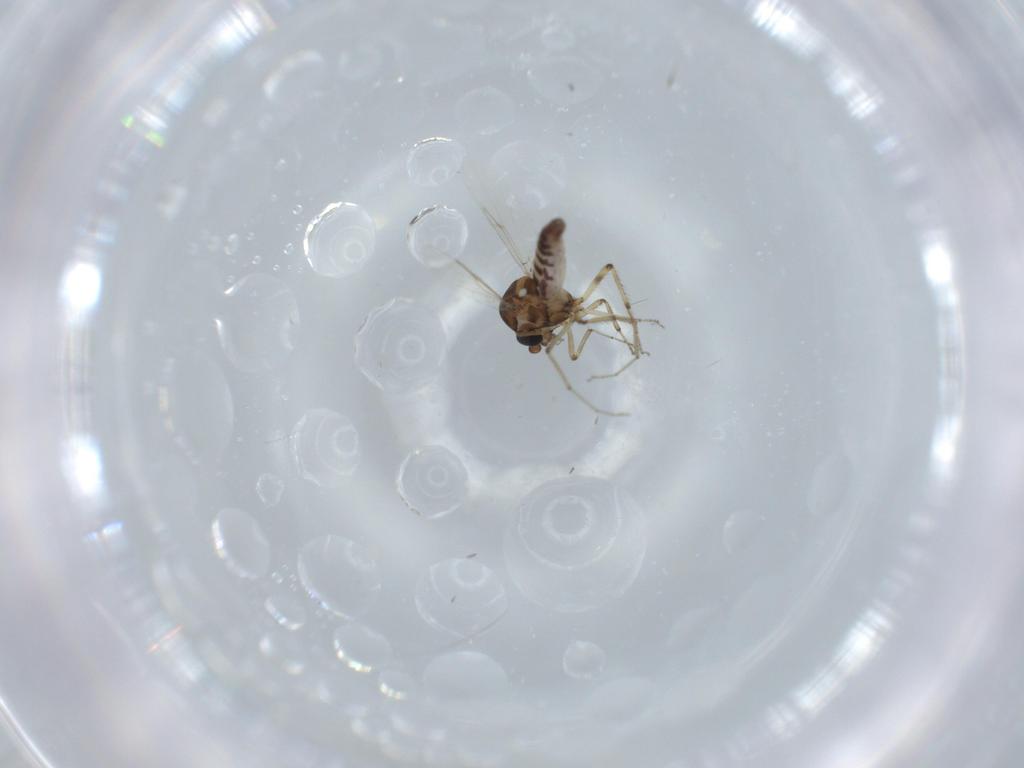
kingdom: Animalia
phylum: Arthropoda
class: Insecta
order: Diptera
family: Ceratopogonidae
